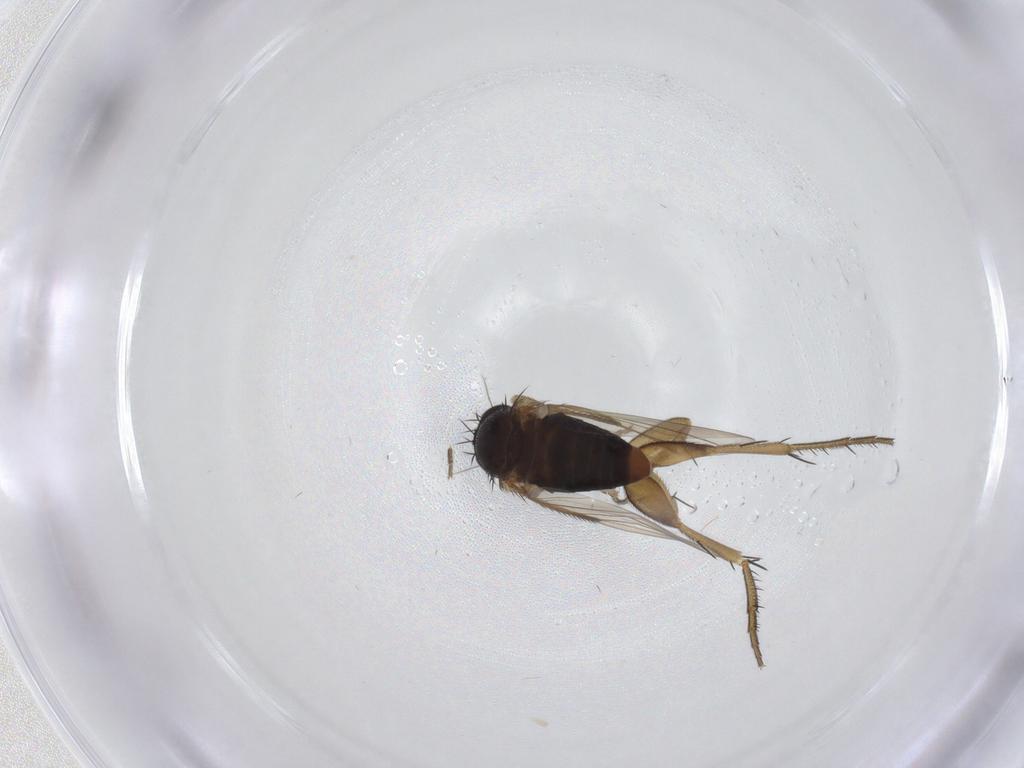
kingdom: Animalia
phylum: Arthropoda
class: Insecta
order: Diptera
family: Phoridae
